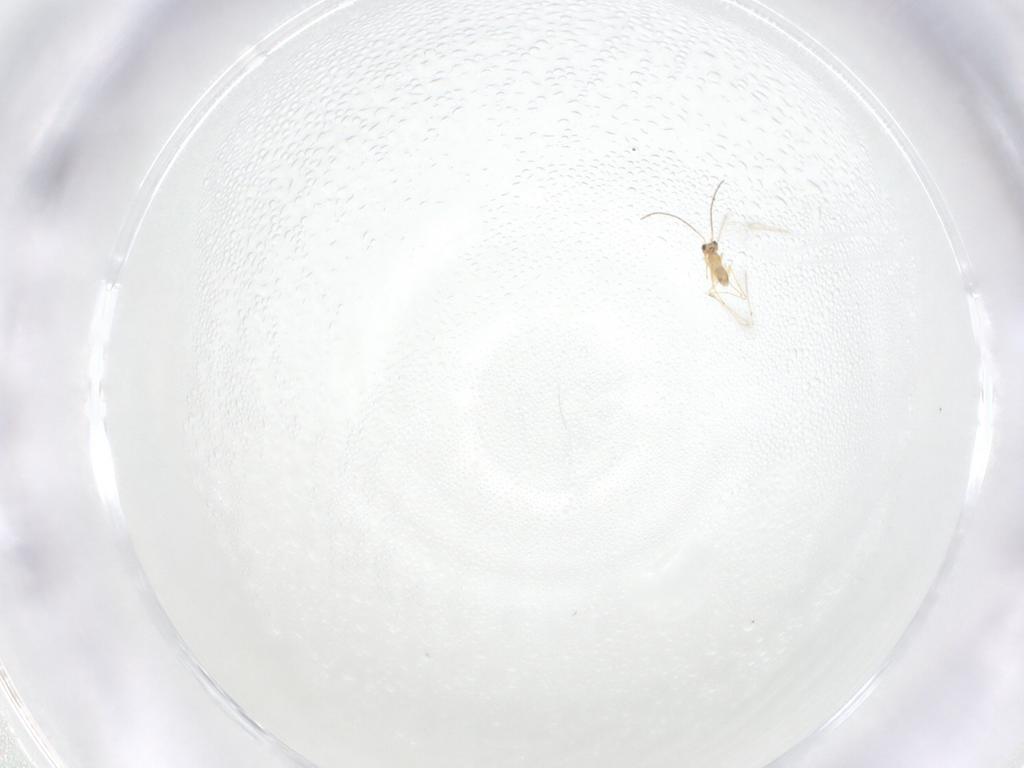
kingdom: Animalia
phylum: Arthropoda
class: Insecta
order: Hymenoptera
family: Mymaridae
